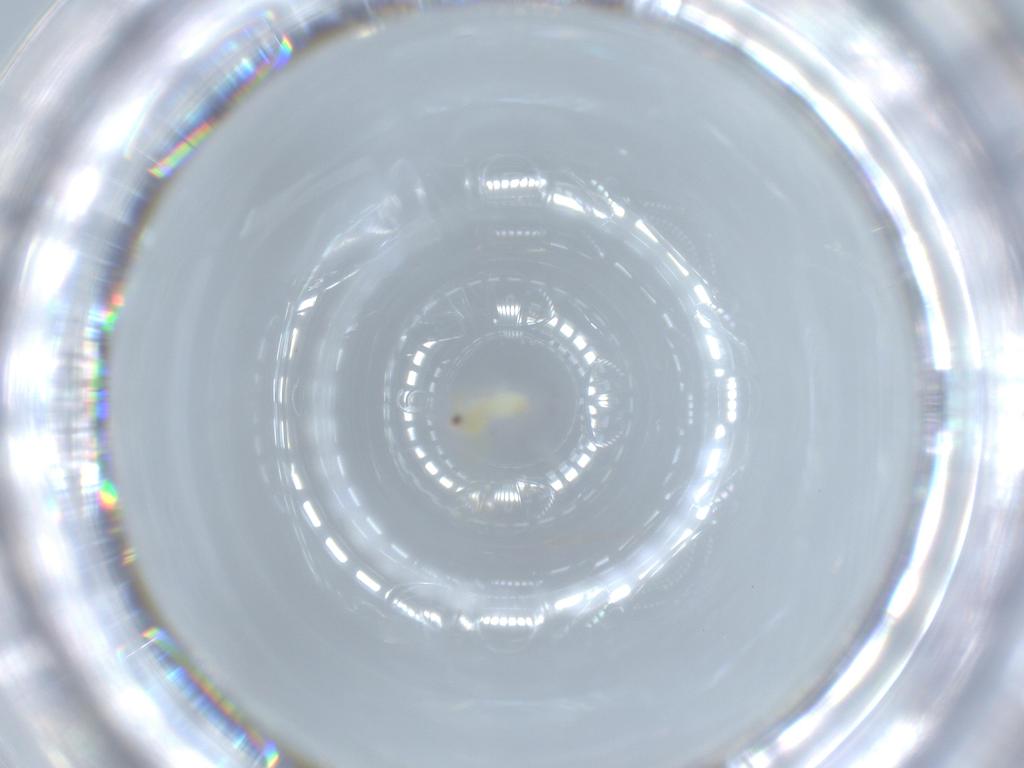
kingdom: Animalia
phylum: Arthropoda
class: Insecta
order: Hemiptera
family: Aleyrodidae
